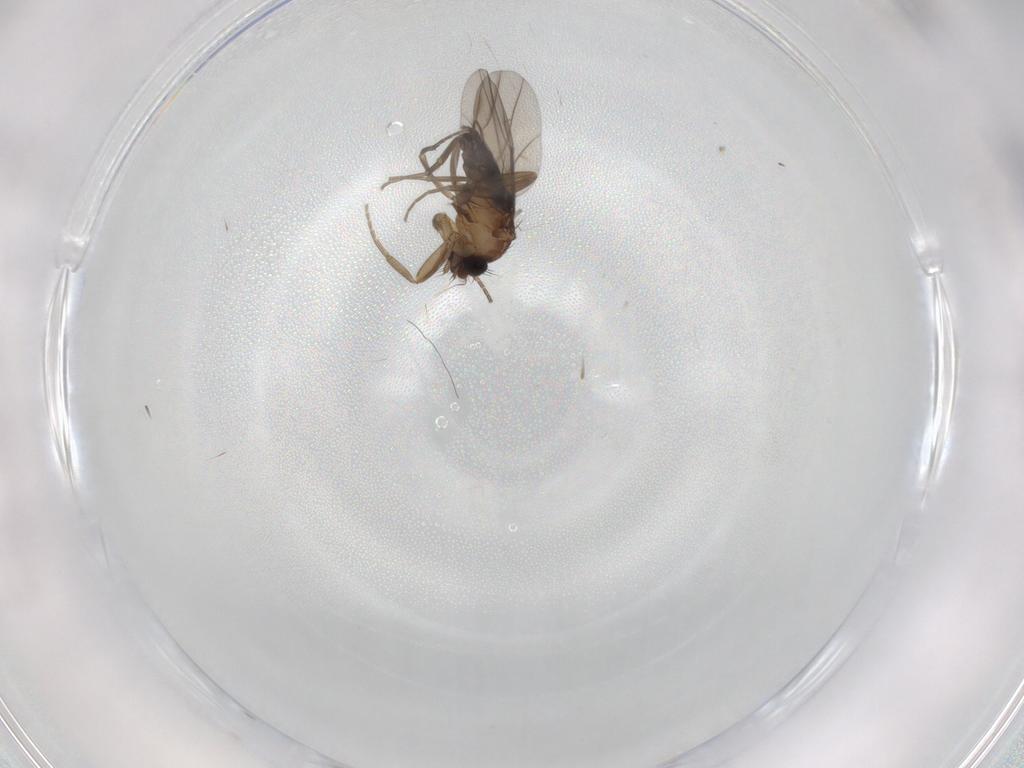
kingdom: Animalia
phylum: Arthropoda
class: Insecta
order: Diptera
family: Phoridae
